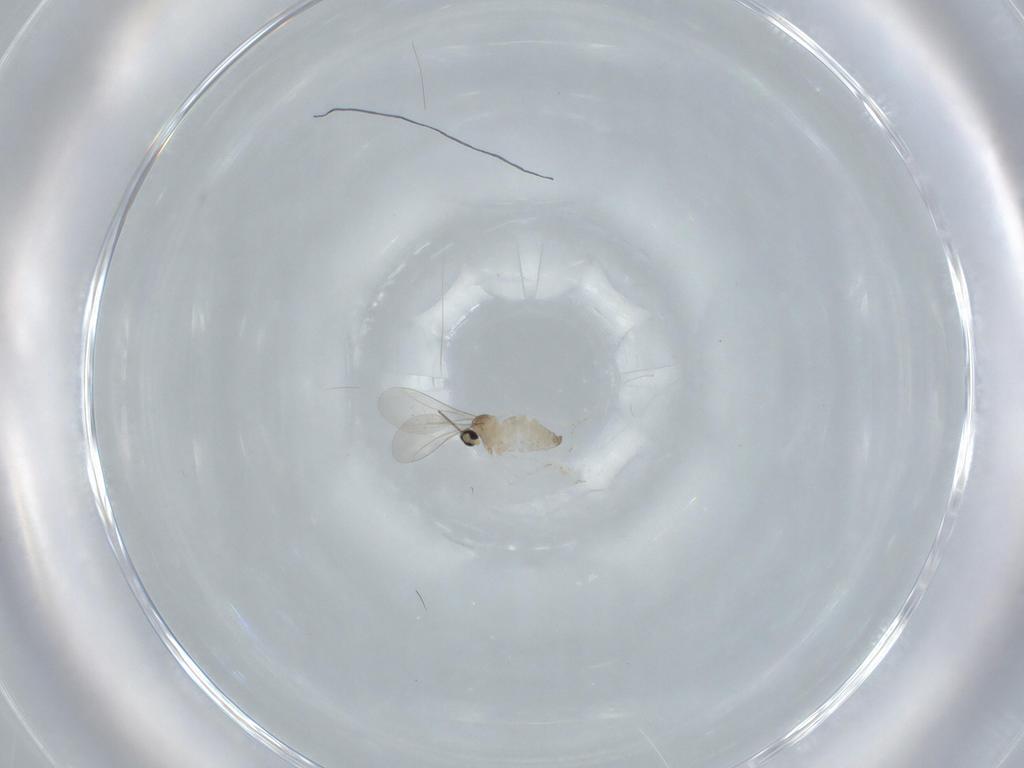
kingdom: Animalia
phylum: Arthropoda
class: Insecta
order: Diptera
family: Cecidomyiidae
